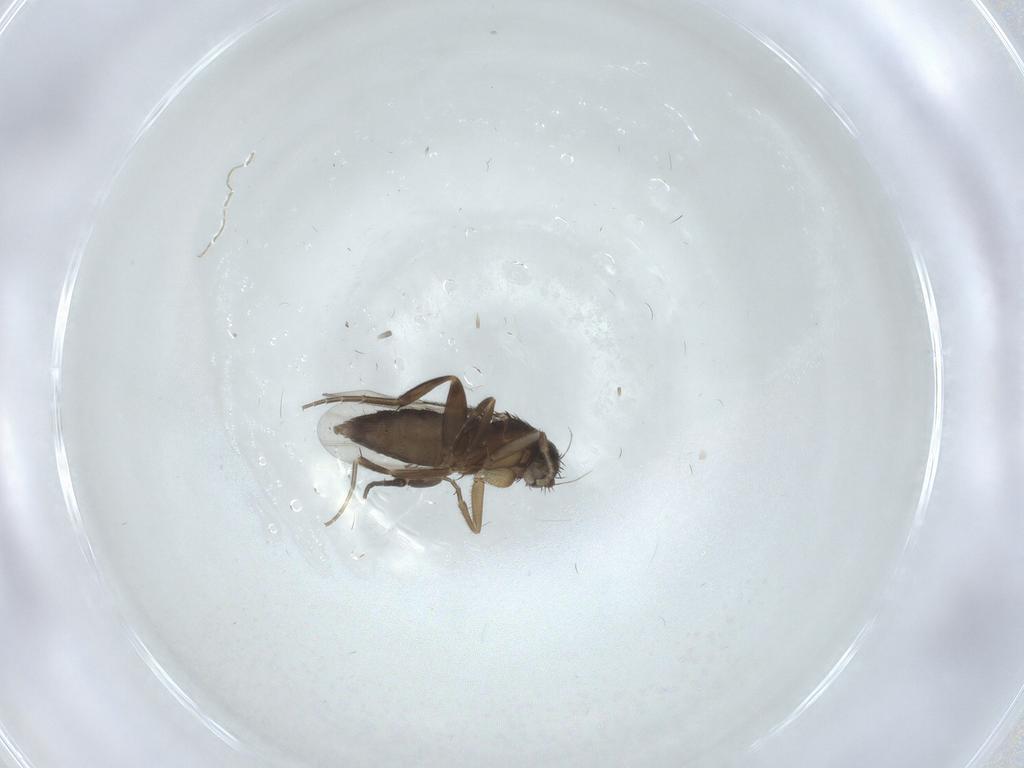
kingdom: Animalia
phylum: Arthropoda
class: Insecta
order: Diptera
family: Phoridae
